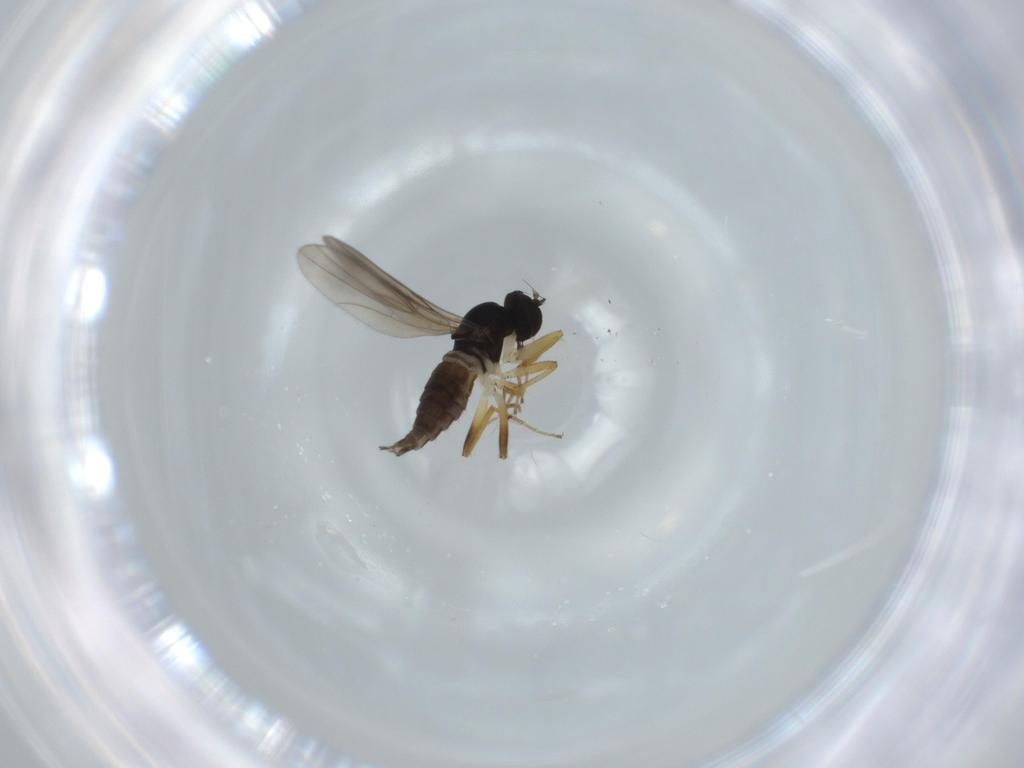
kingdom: Animalia
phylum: Arthropoda
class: Insecta
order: Diptera
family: Hybotidae
